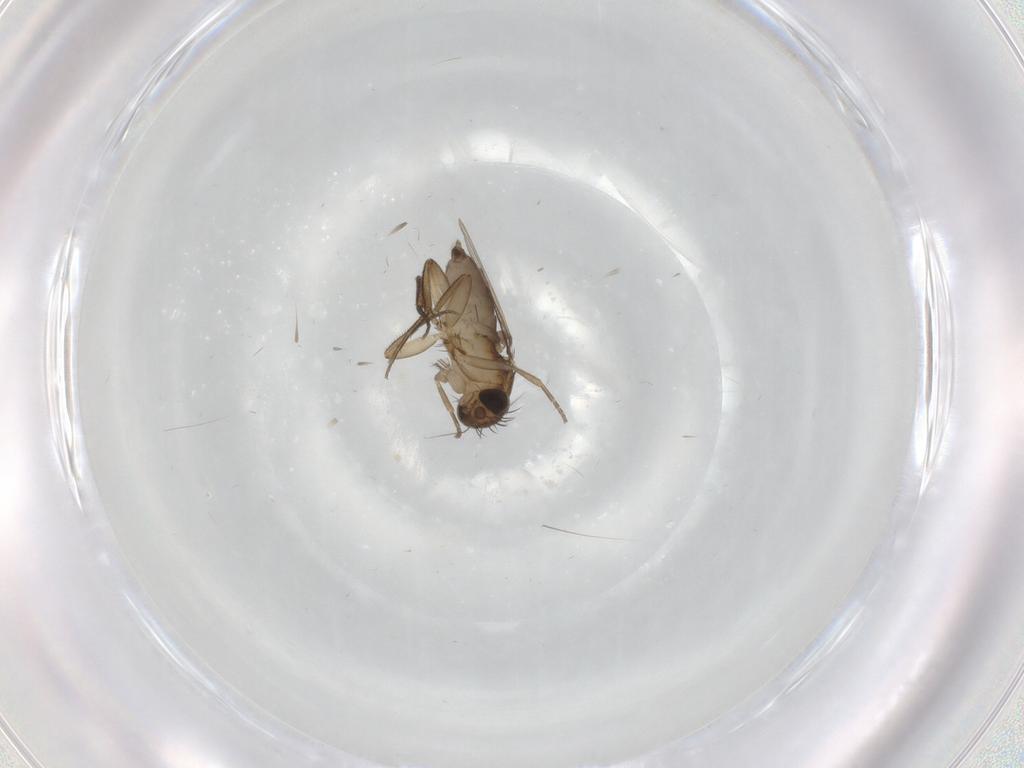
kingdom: Animalia
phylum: Arthropoda
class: Insecta
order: Diptera
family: Phoridae
